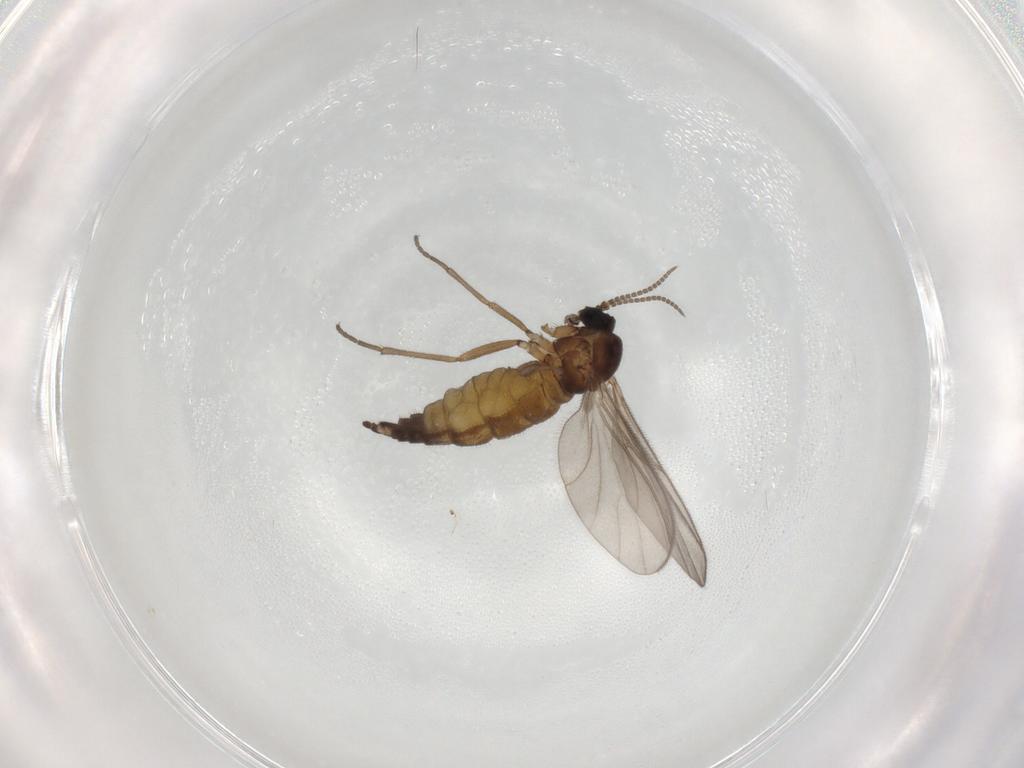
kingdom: Animalia
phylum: Arthropoda
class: Insecta
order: Diptera
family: Sciaridae
